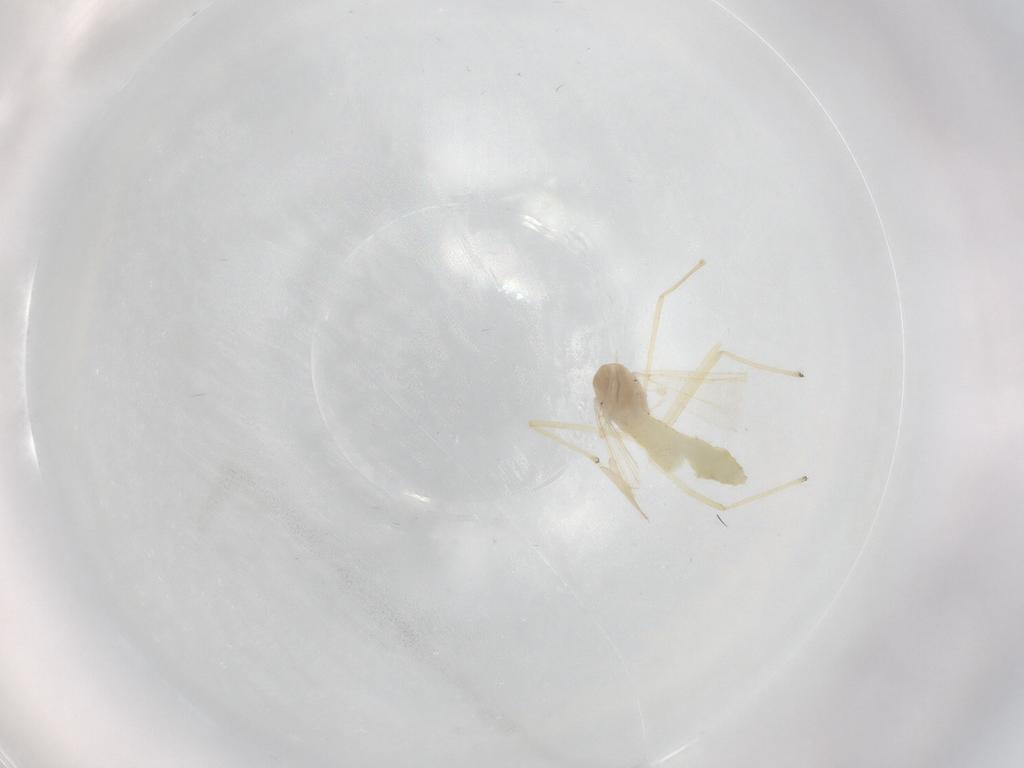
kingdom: Animalia
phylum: Arthropoda
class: Insecta
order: Diptera
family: Chironomidae
